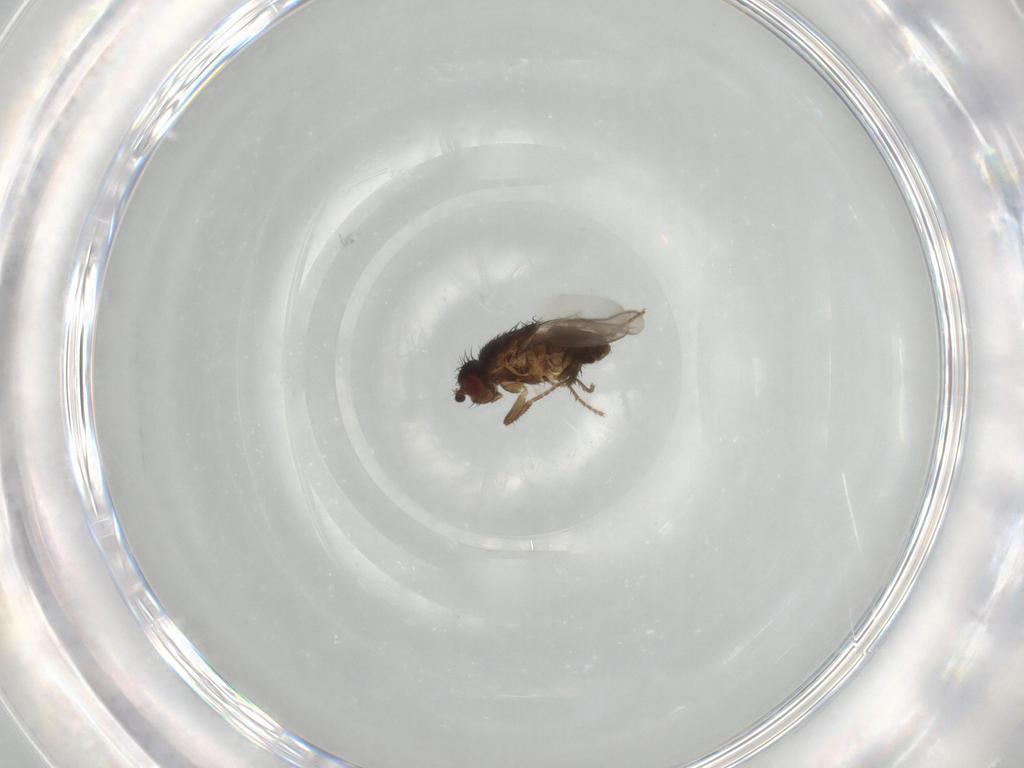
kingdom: Animalia
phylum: Arthropoda
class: Insecta
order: Diptera
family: Sphaeroceridae
